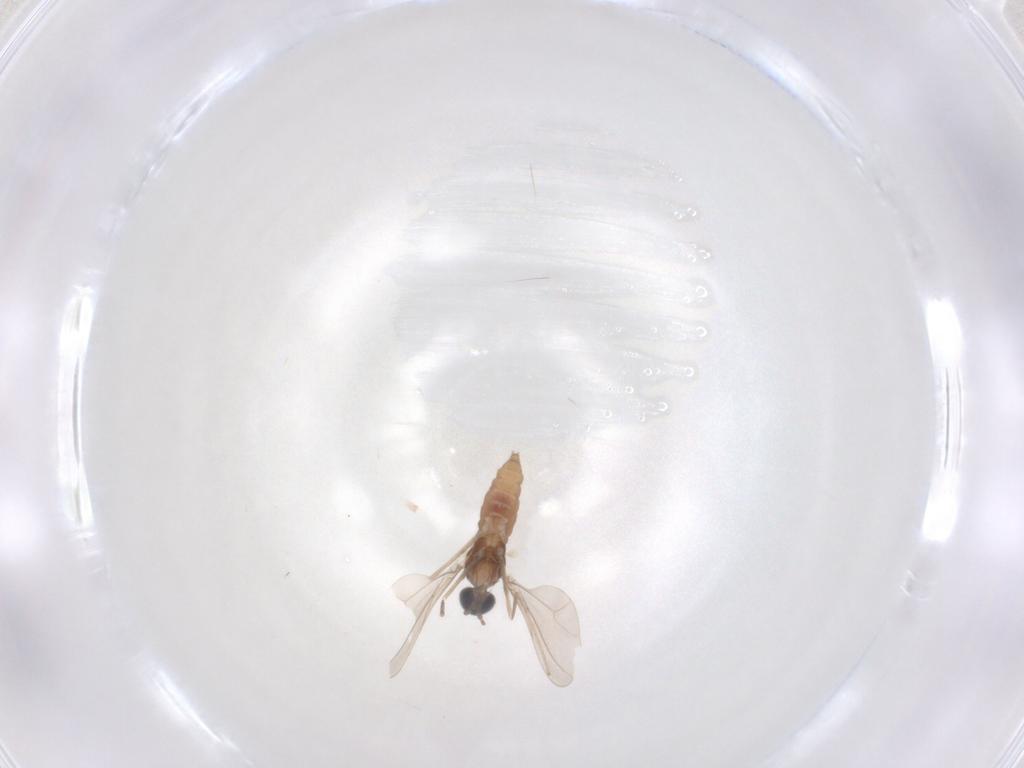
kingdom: Animalia
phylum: Arthropoda
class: Insecta
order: Diptera
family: Cecidomyiidae
